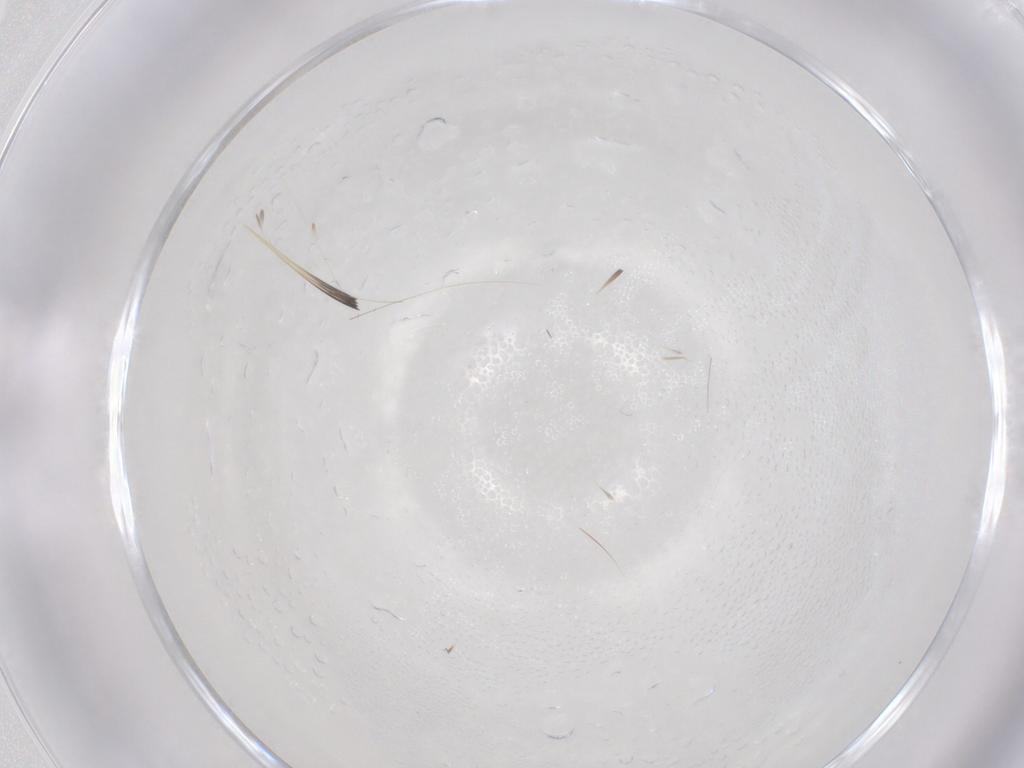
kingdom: Animalia
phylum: Arthropoda
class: Insecta
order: Diptera
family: Cecidomyiidae
